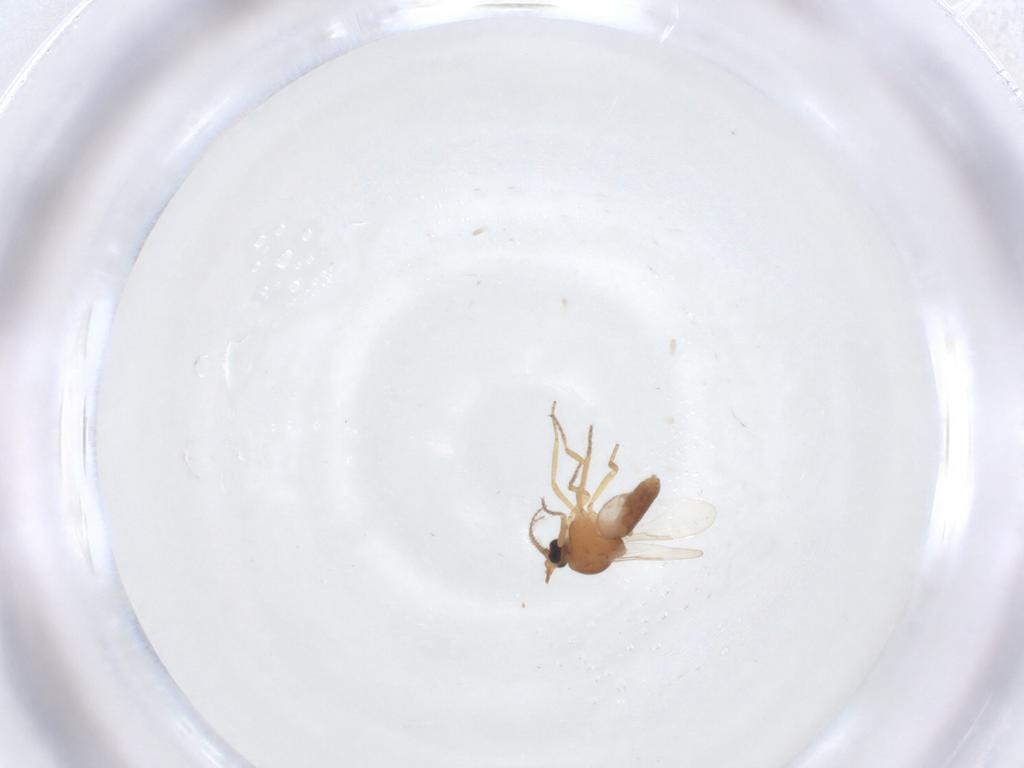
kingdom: Animalia
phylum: Arthropoda
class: Insecta
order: Diptera
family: Ceratopogonidae
